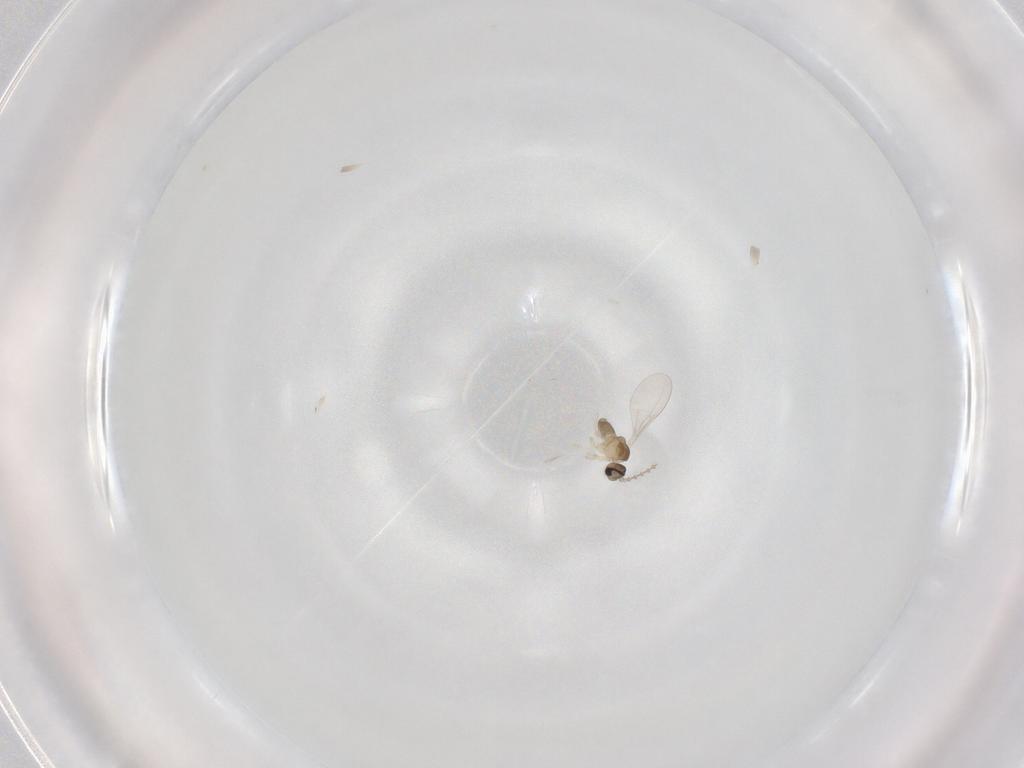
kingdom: Animalia
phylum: Arthropoda
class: Insecta
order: Diptera
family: Cecidomyiidae
